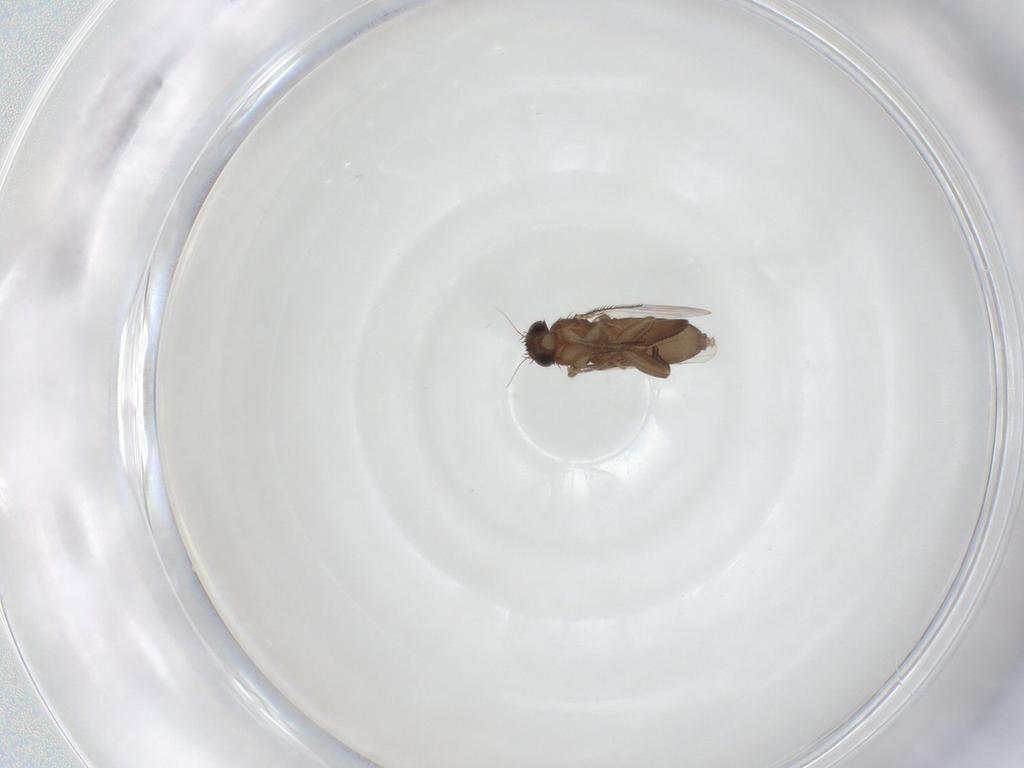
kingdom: Animalia
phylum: Arthropoda
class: Insecta
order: Diptera
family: Phoridae
